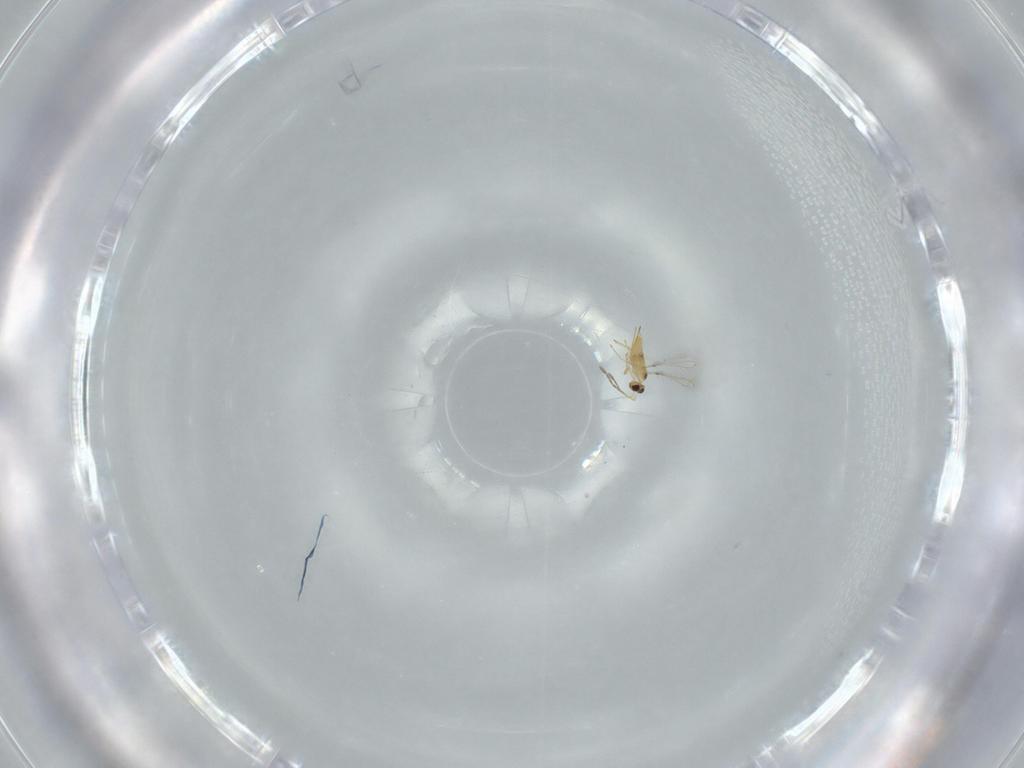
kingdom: Animalia
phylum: Arthropoda
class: Insecta
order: Hymenoptera
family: Mymaridae
